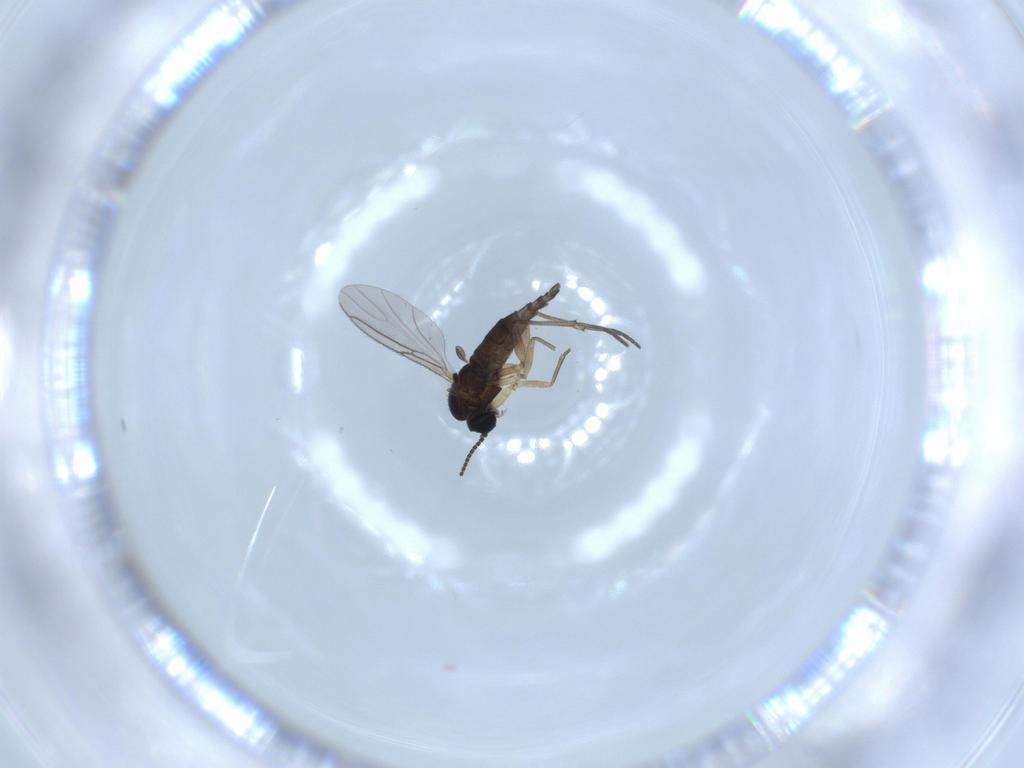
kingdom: Animalia
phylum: Arthropoda
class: Insecta
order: Diptera
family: Sciaridae
